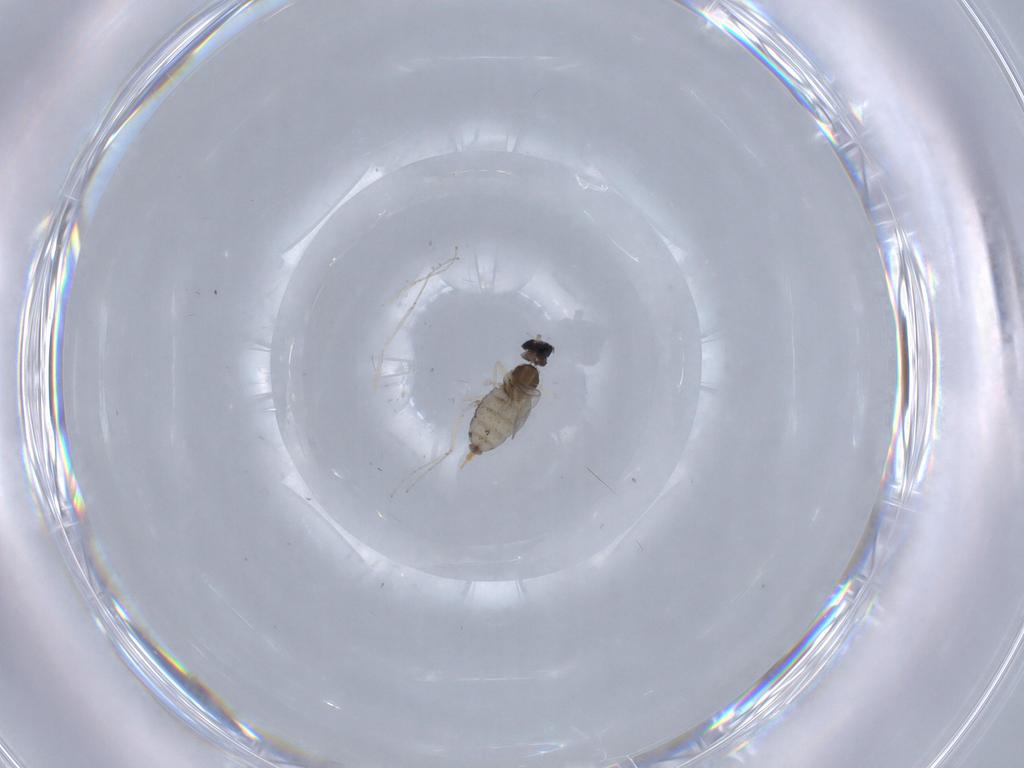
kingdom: Animalia
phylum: Arthropoda
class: Insecta
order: Diptera
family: Cecidomyiidae
